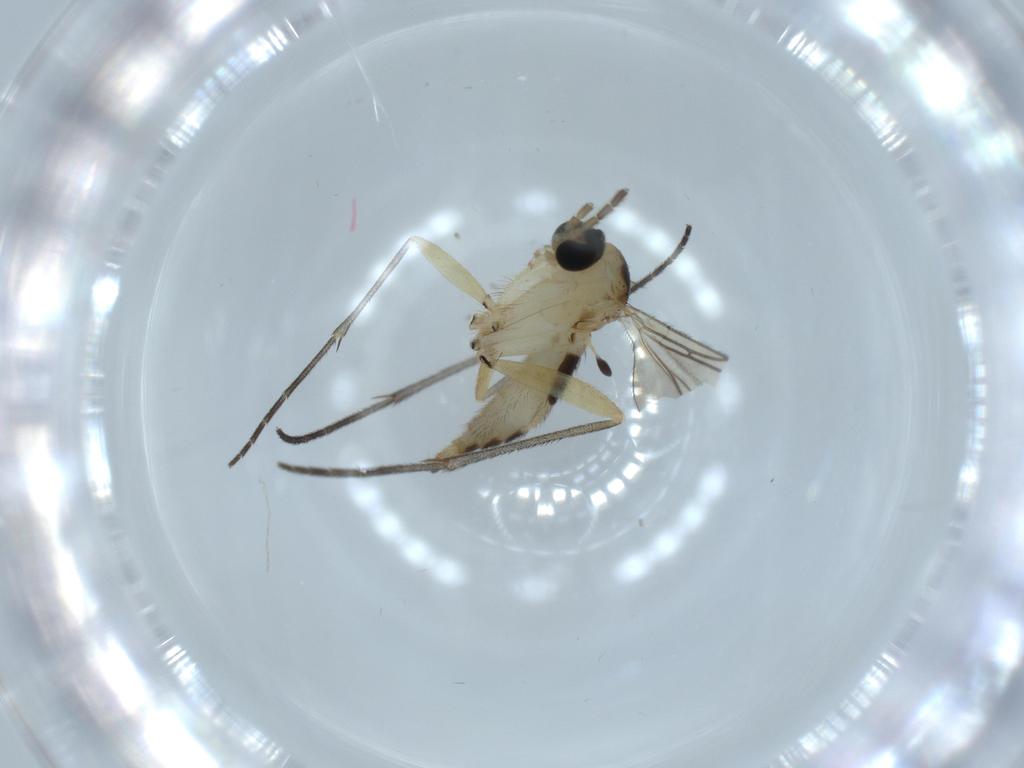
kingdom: Animalia
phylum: Arthropoda
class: Insecta
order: Diptera
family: Sciaridae
